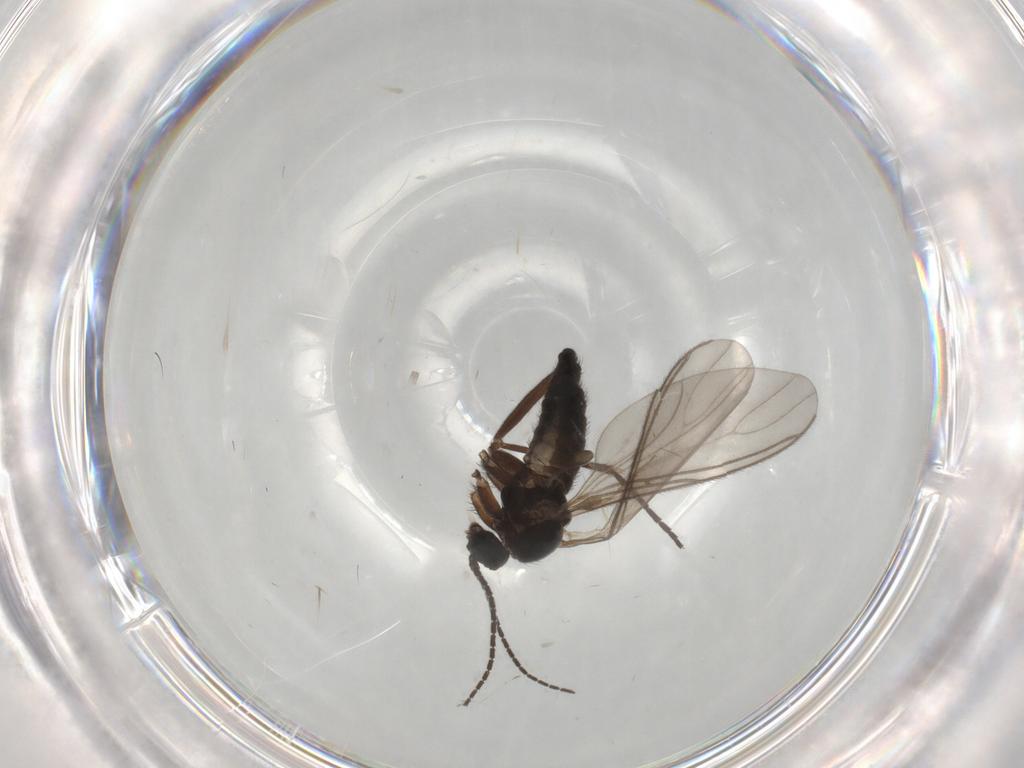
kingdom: Animalia
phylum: Arthropoda
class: Insecta
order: Diptera
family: Sciaridae
